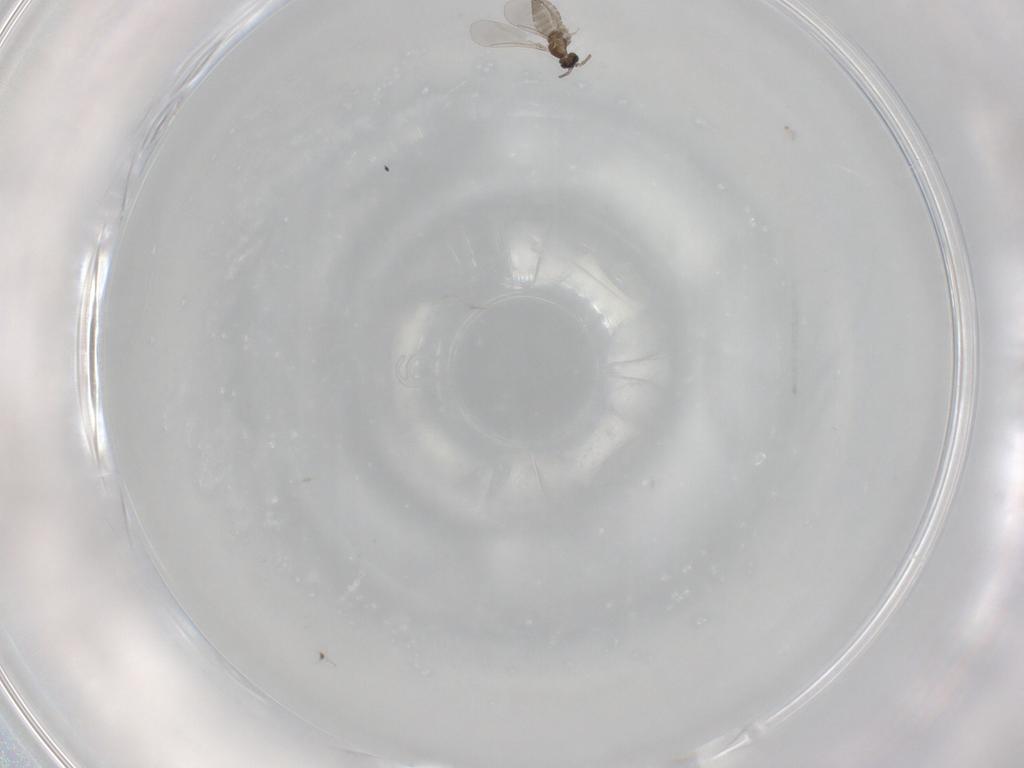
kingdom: Animalia
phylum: Arthropoda
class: Insecta
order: Diptera
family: Cecidomyiidae
